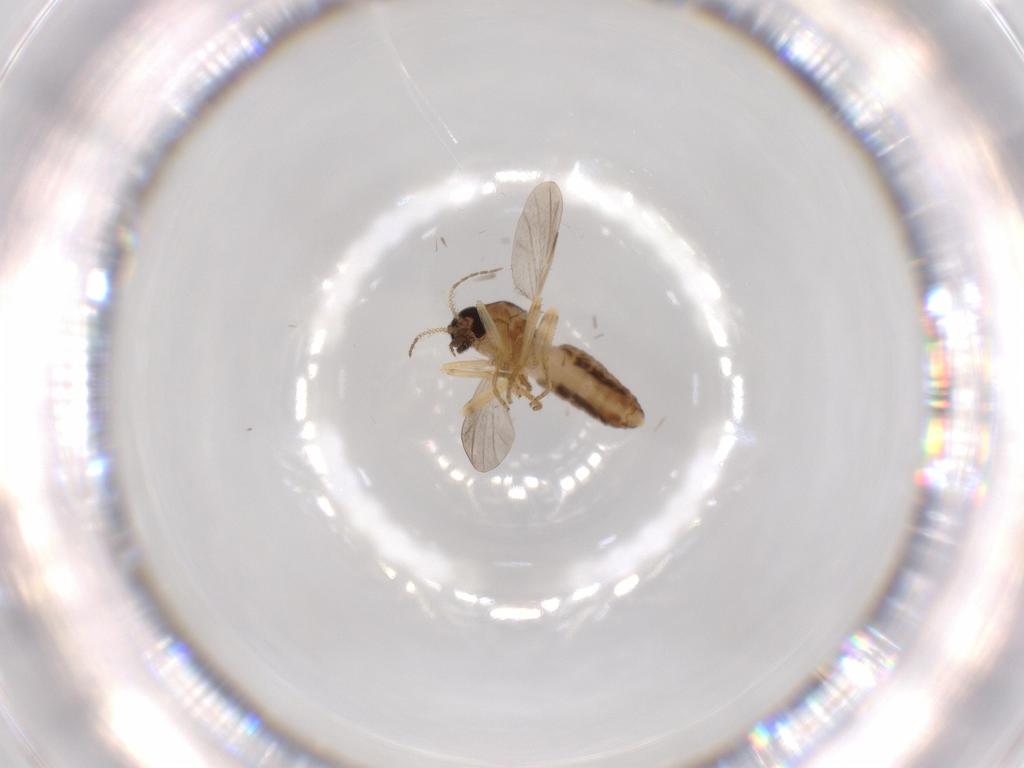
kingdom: Animalia
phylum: Arthropoda
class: Insecta
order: Diptera
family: Ceratopogonidae
